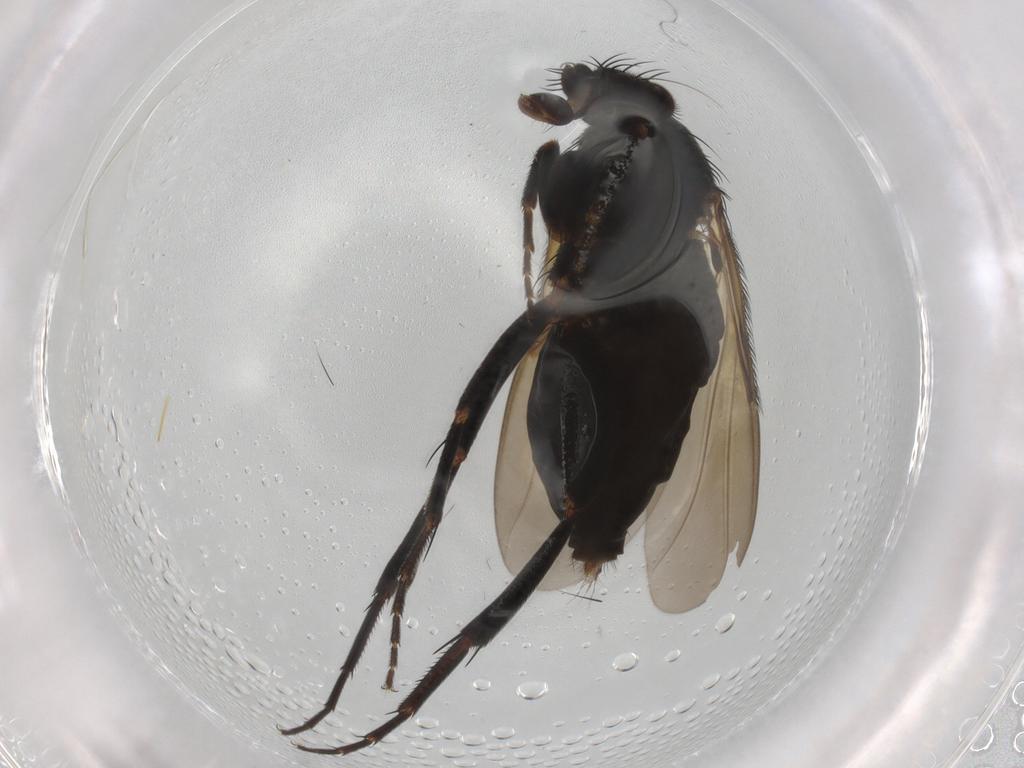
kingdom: Animalia
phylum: Arthropoda
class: Insecta
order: Diptera
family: Phoridae
